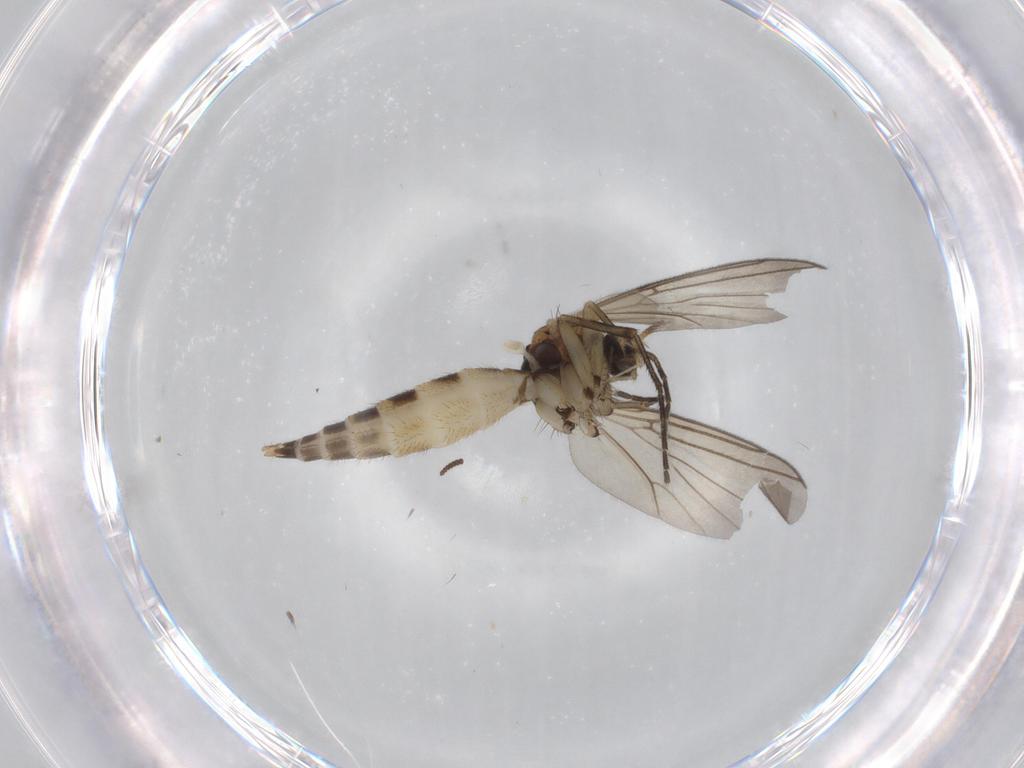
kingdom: Animalia
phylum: Arthropoda
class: Insecta
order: Diptera
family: Mycetophilidae
